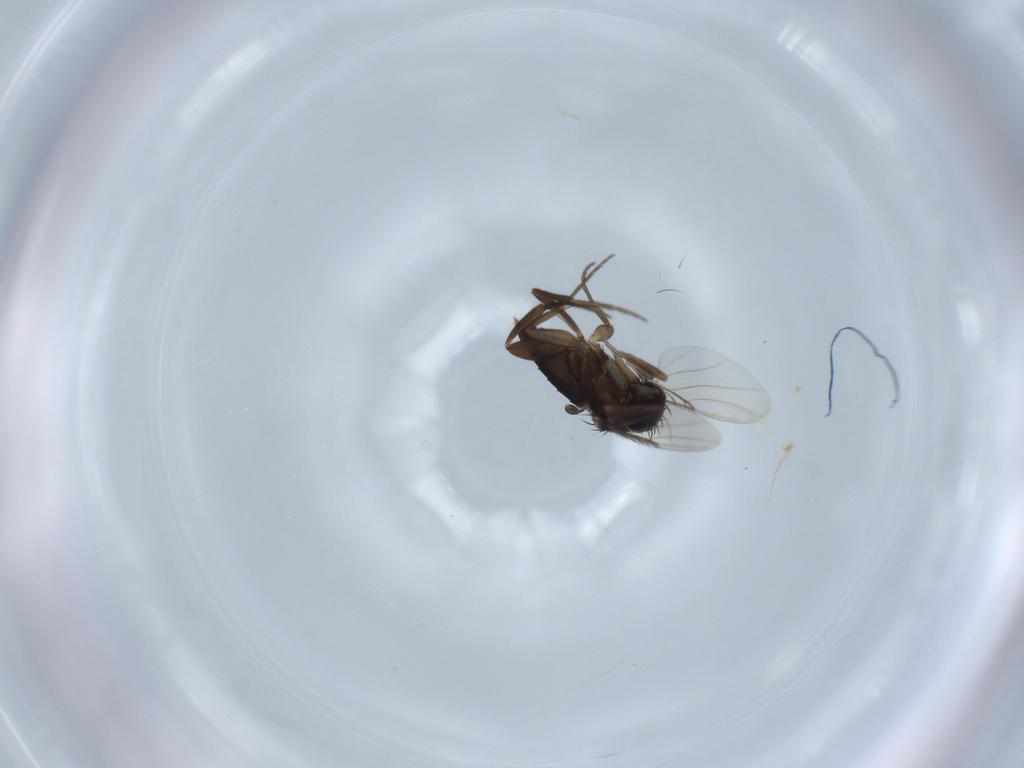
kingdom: Animalia
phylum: Arthropoda
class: Insecta
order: Diptera
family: Phoridae
